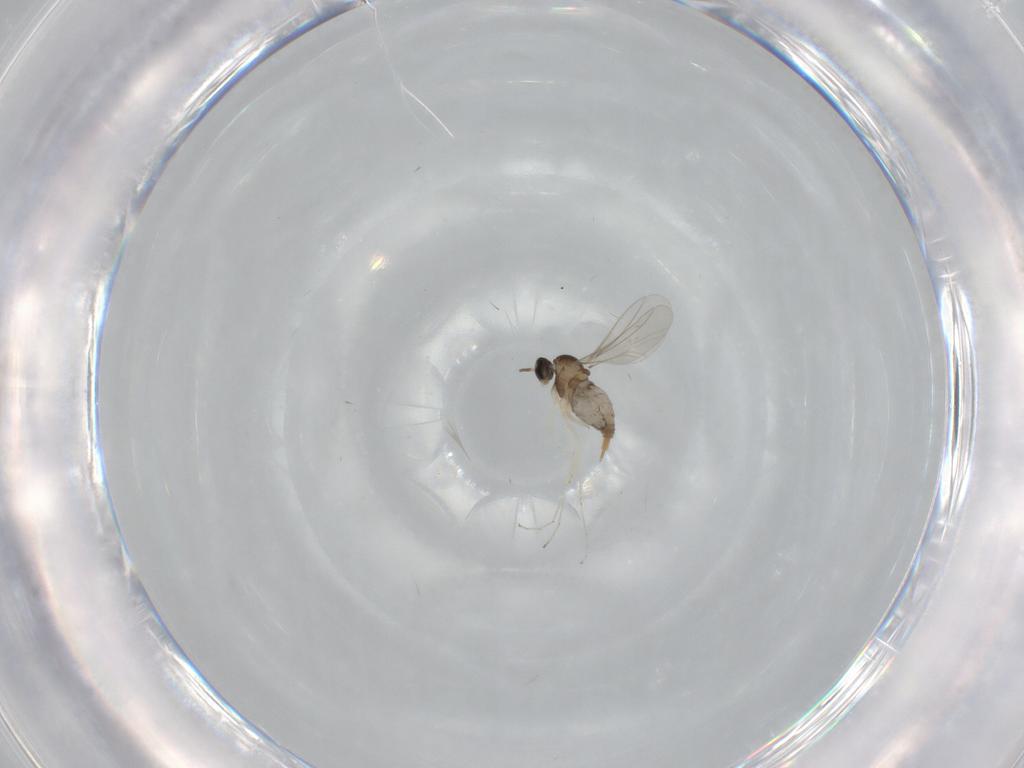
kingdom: Animalia
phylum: Arthropoda
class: Insecta
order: Diptera
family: Cecidomyiidae
